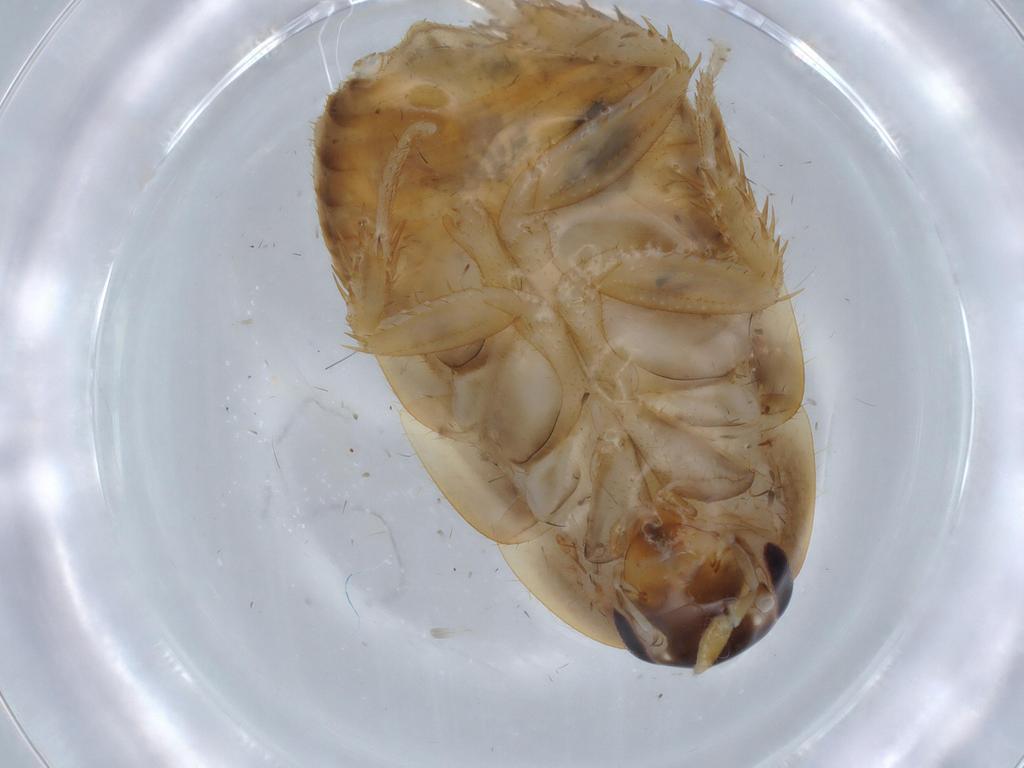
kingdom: Animalia
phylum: Arthropoda
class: Insecta
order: Blattodea
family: Ectobiidae
